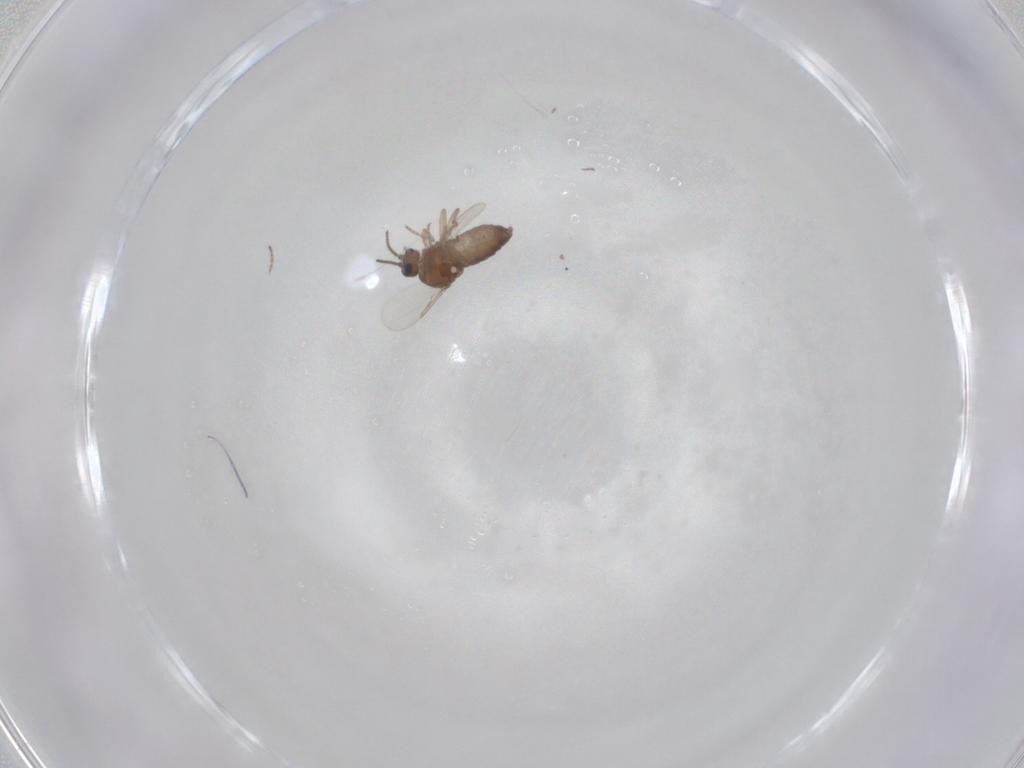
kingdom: Animalia
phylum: Arthropoda
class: Insecta
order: Diptera
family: Ceratopogonidae
